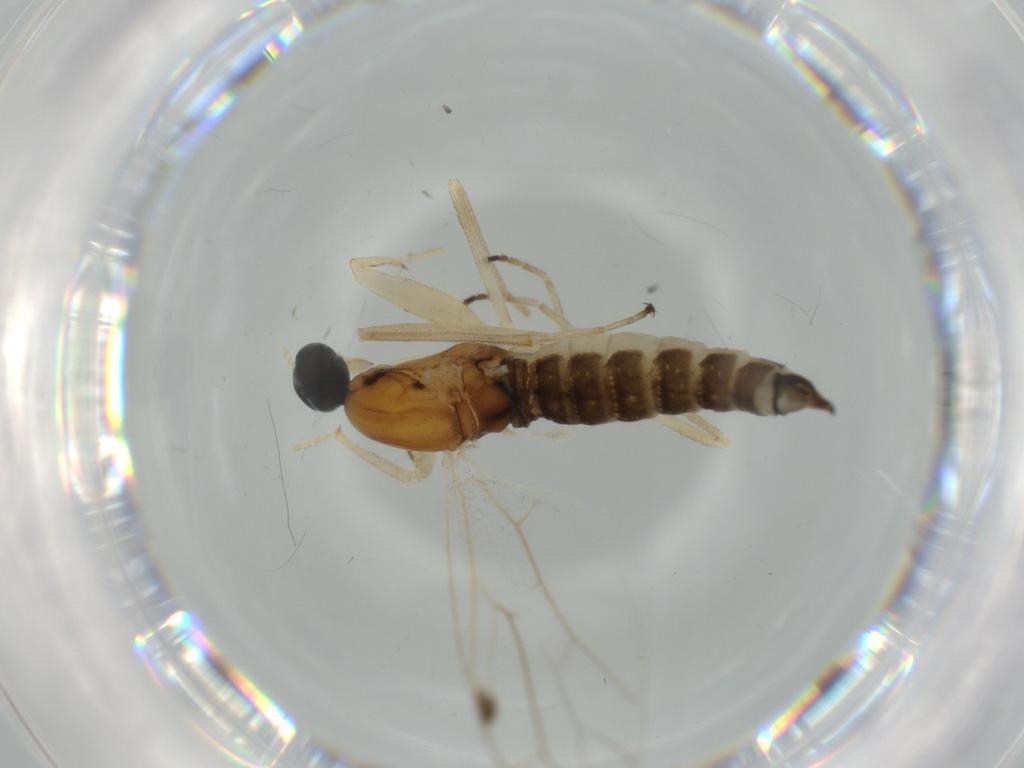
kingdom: Animalia
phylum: Arthropoda
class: Insecta
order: Diptera
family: Empididae
